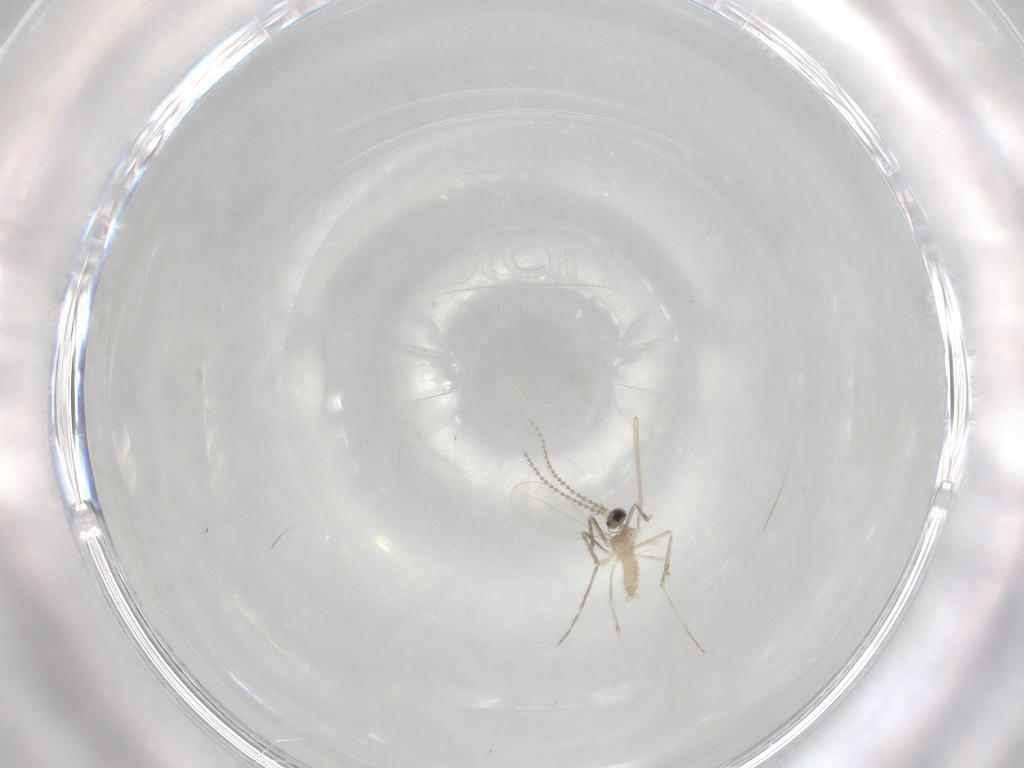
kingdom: Animalia
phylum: Arthropoda
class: Insecta
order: Diptera
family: Cecidomyiidae
